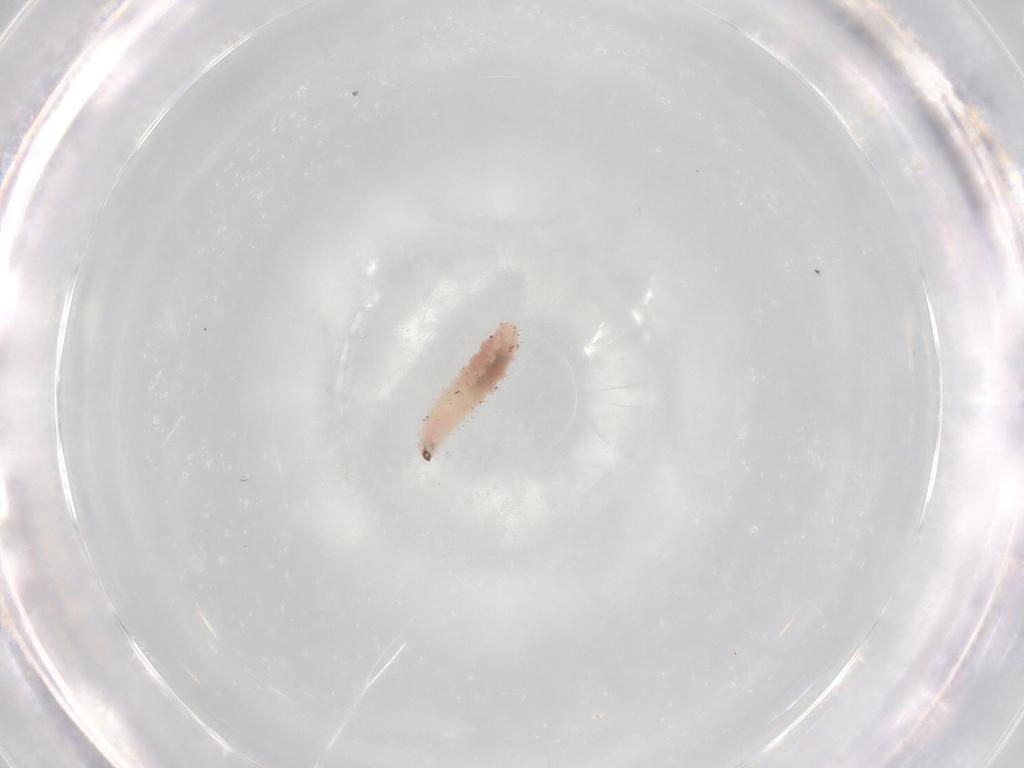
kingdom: Animalia
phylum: Arthropoda
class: Insecta
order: Diptera
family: Cecidomyiidae
